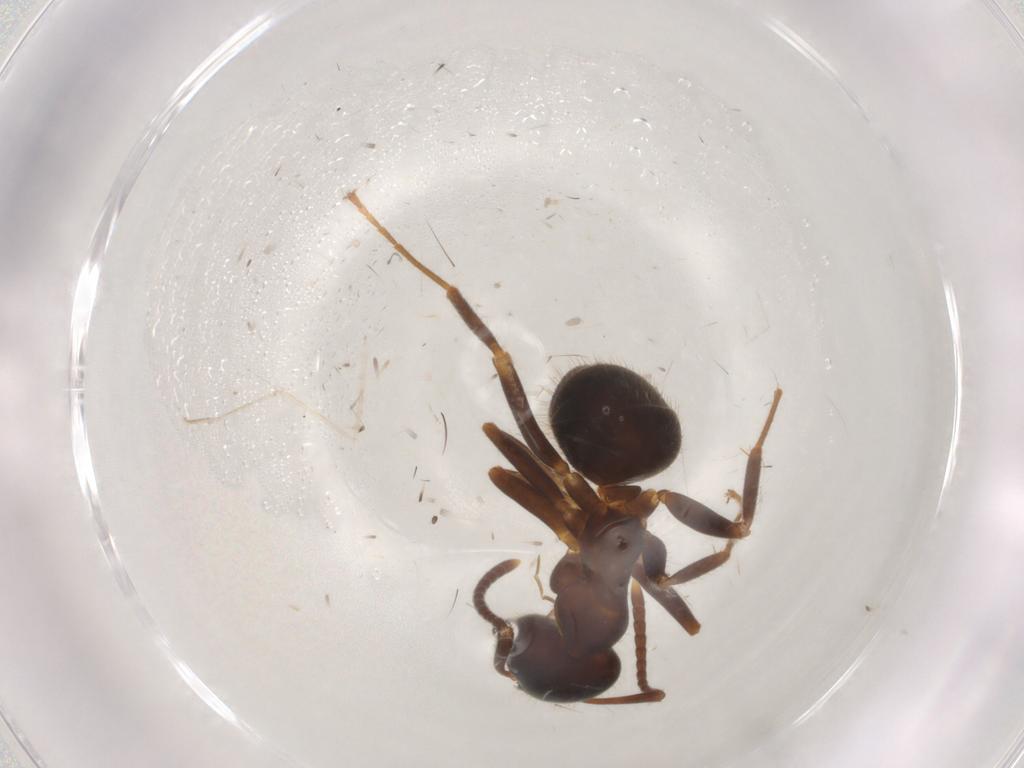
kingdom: Animalia
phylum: Arthropoda
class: Insecta
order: Hymenoptera
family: Formicidae
